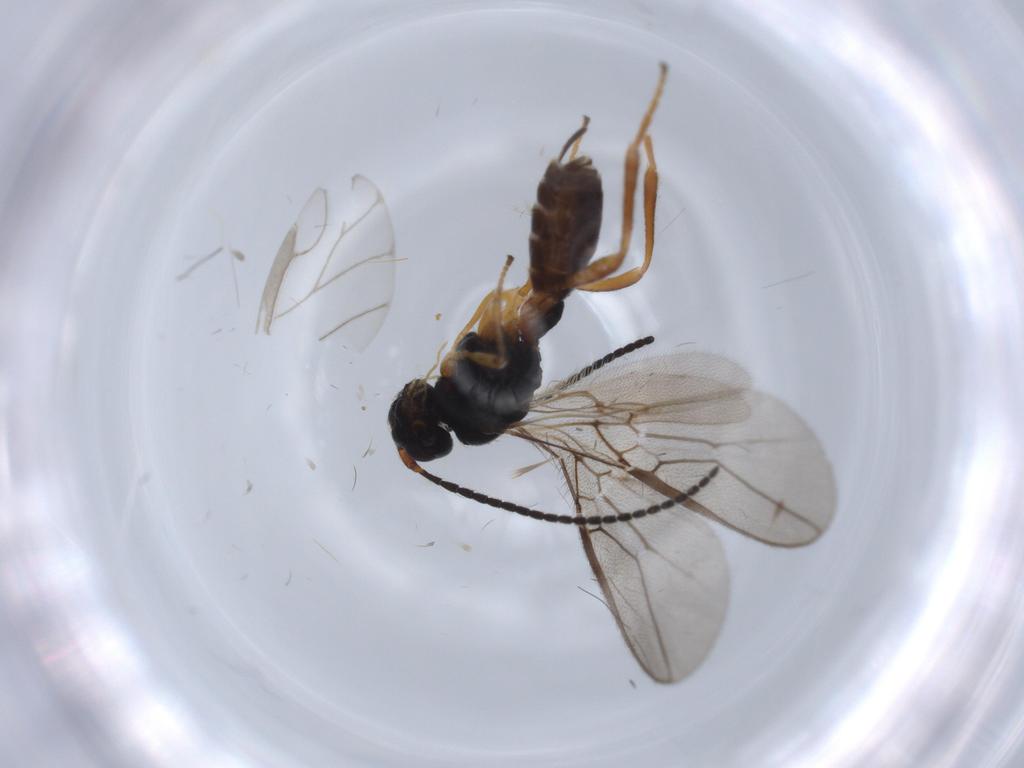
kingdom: Animalia
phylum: Arthropoda
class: Insecta
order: Hymenoptera
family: Braconidae
